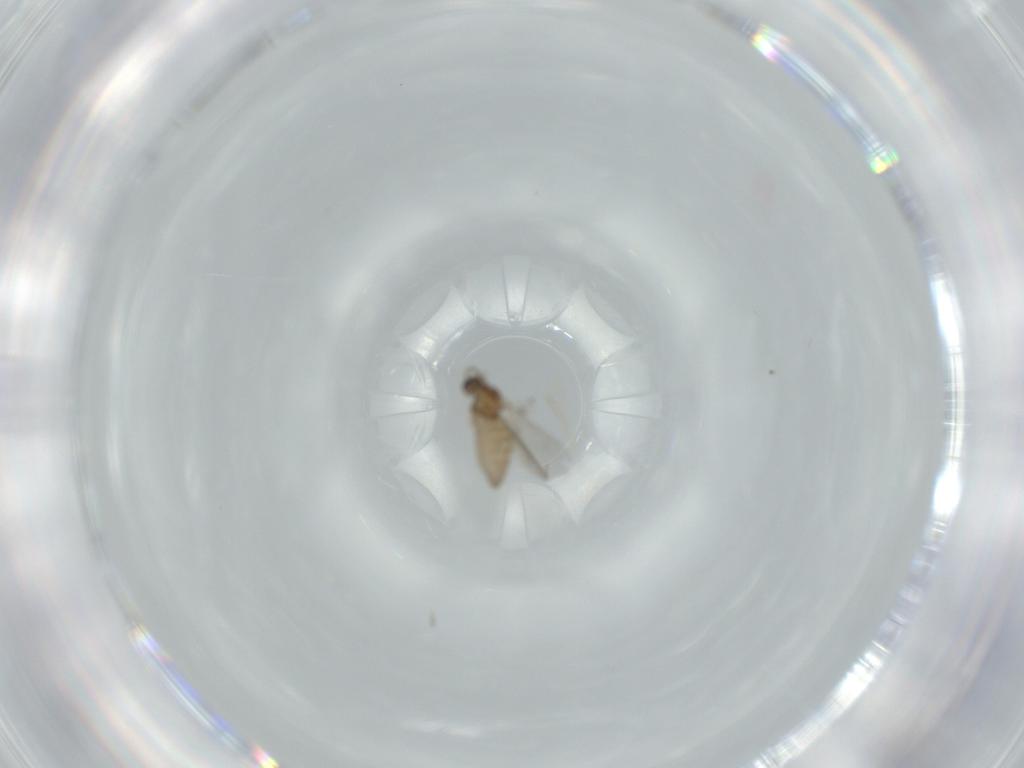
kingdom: Animalia
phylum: Arthropoda
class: Insecta
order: Diptera
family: Cecidomyiidae
